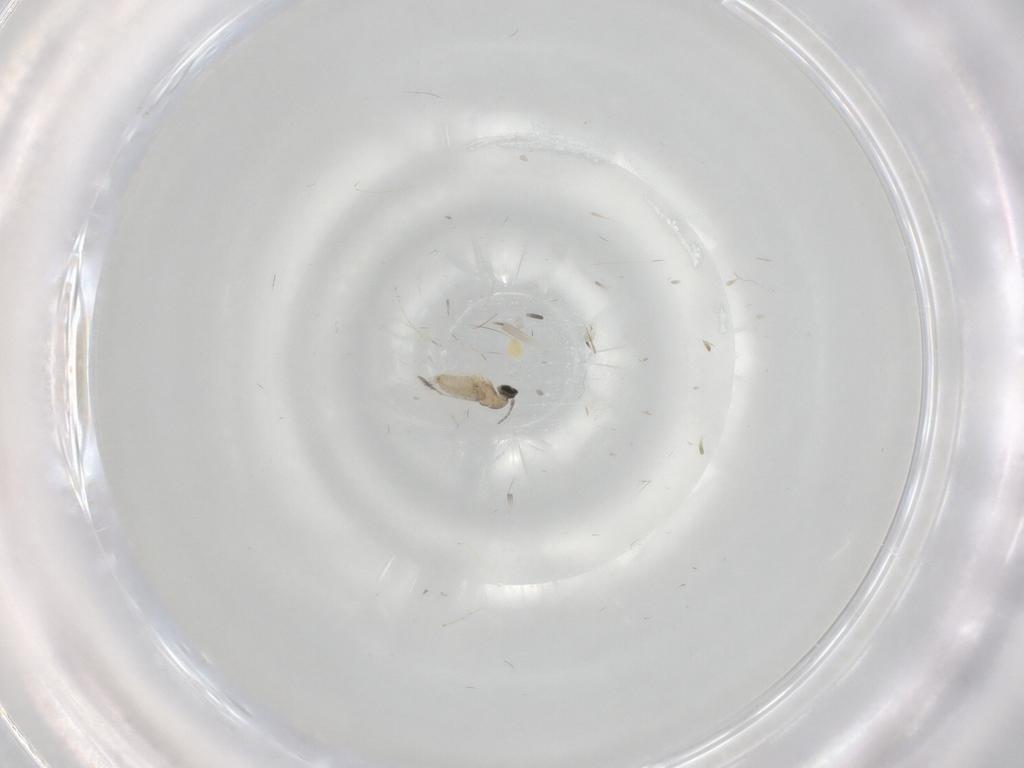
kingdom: Animalia
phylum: Arthropoda
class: Insecta
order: Diptera
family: Cecidomyiidae
